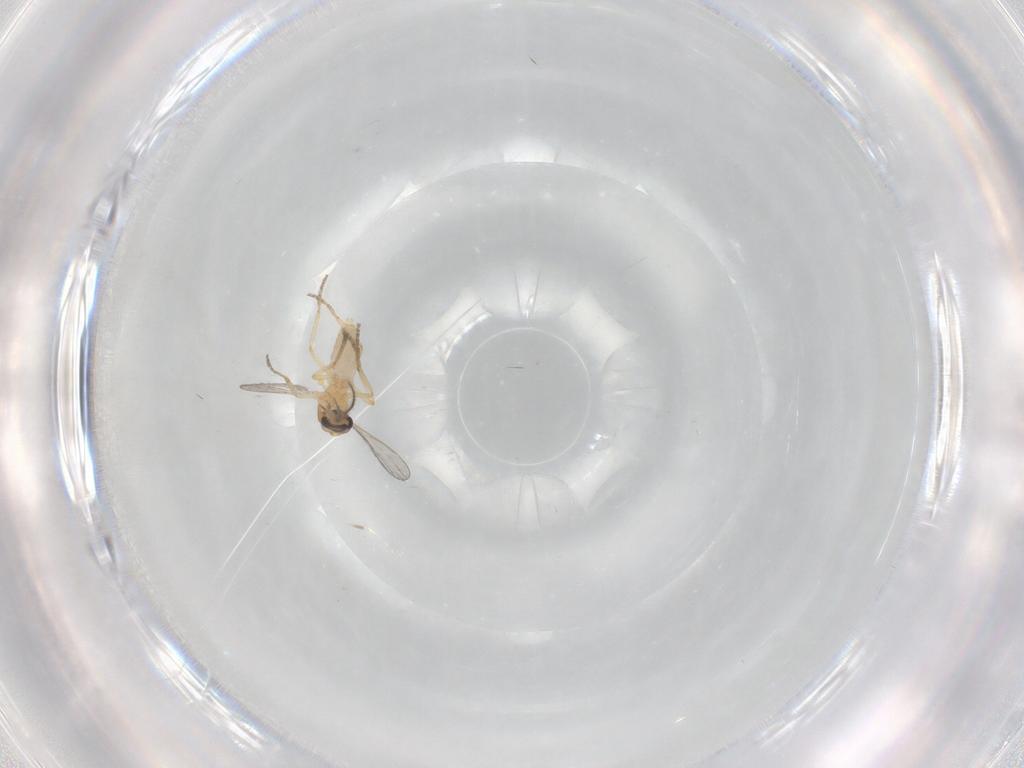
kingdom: Animalia
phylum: Arthropoda
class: Insecta
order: Diptera
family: Ceratopogonidae
